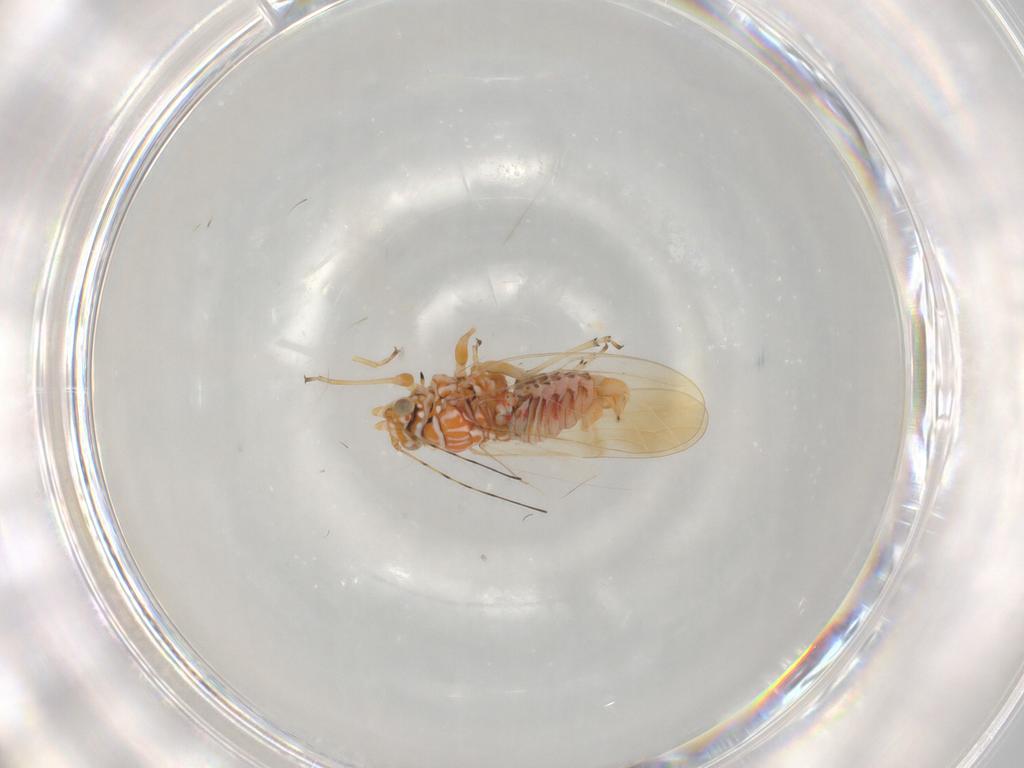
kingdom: Animalia
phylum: Arthropoda
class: Insecta
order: Hemiptera
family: Psyllidae
